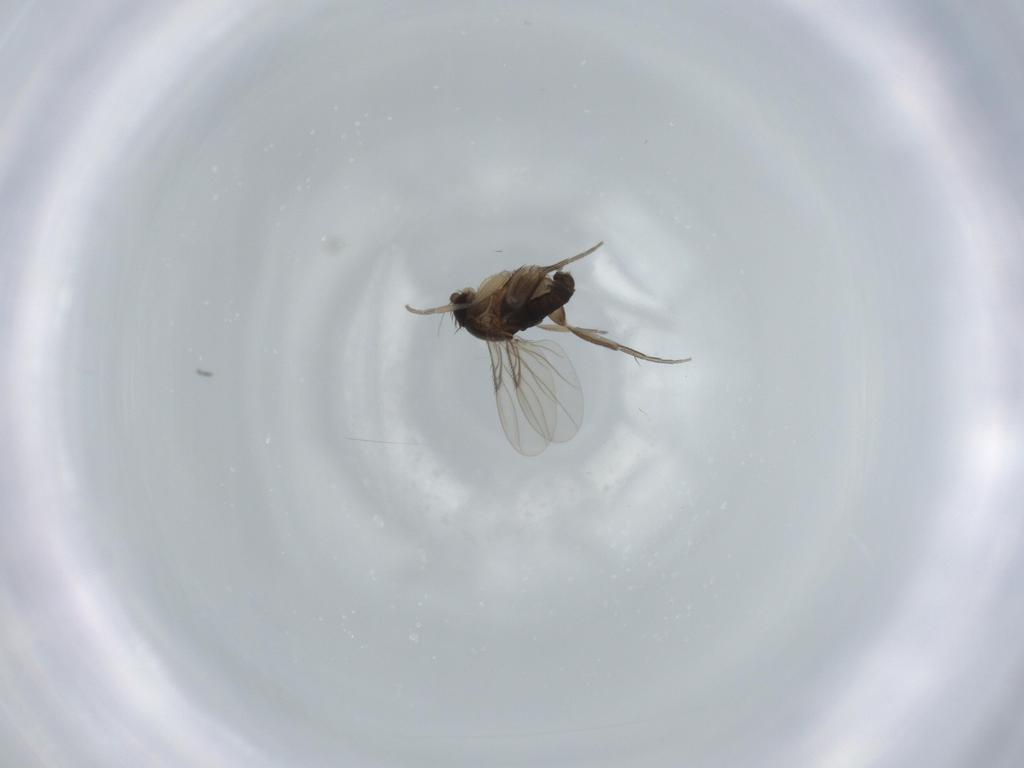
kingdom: Animalia
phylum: Arthropoda
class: Insecta
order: Diptera
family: Phoridae
